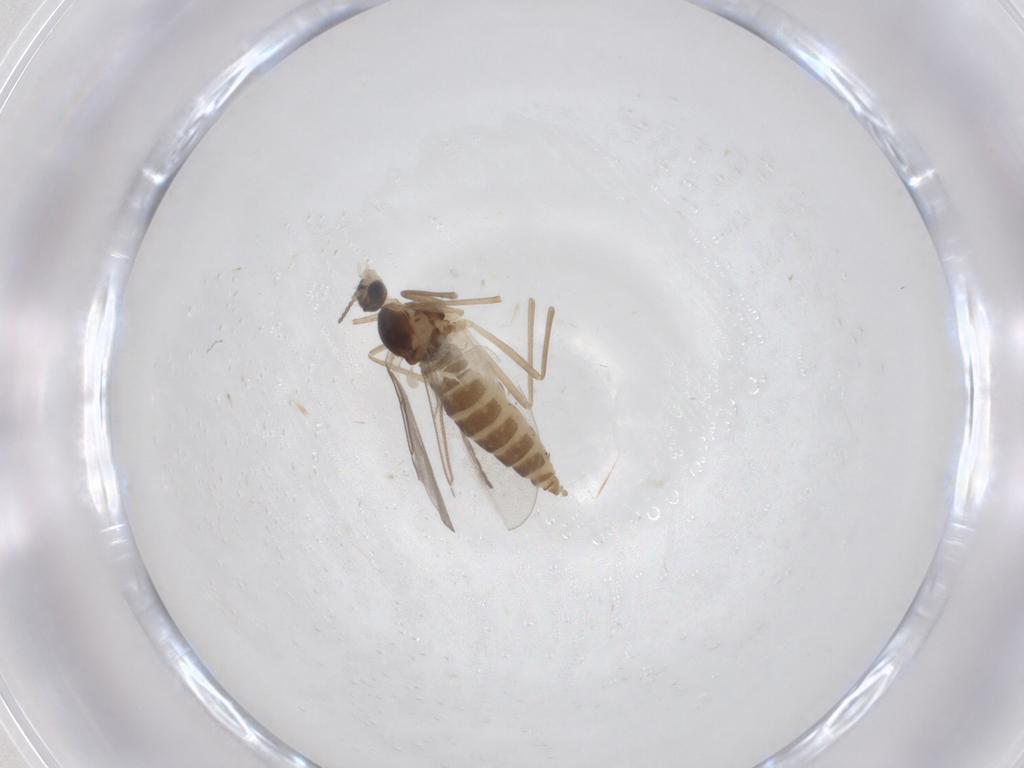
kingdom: Animalia
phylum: Arthropoda
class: Insecta
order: Diptera
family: Cecidomyiidae
